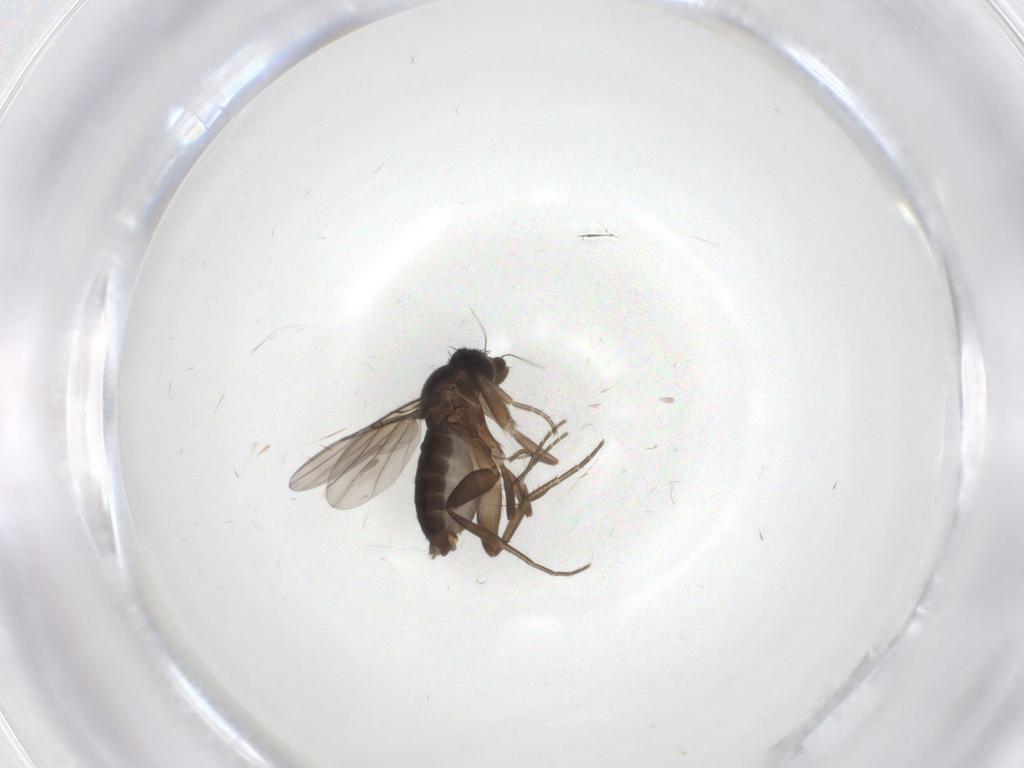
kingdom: Animalia
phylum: Arthropoda
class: Insecta
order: Diptera
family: Phoridae
